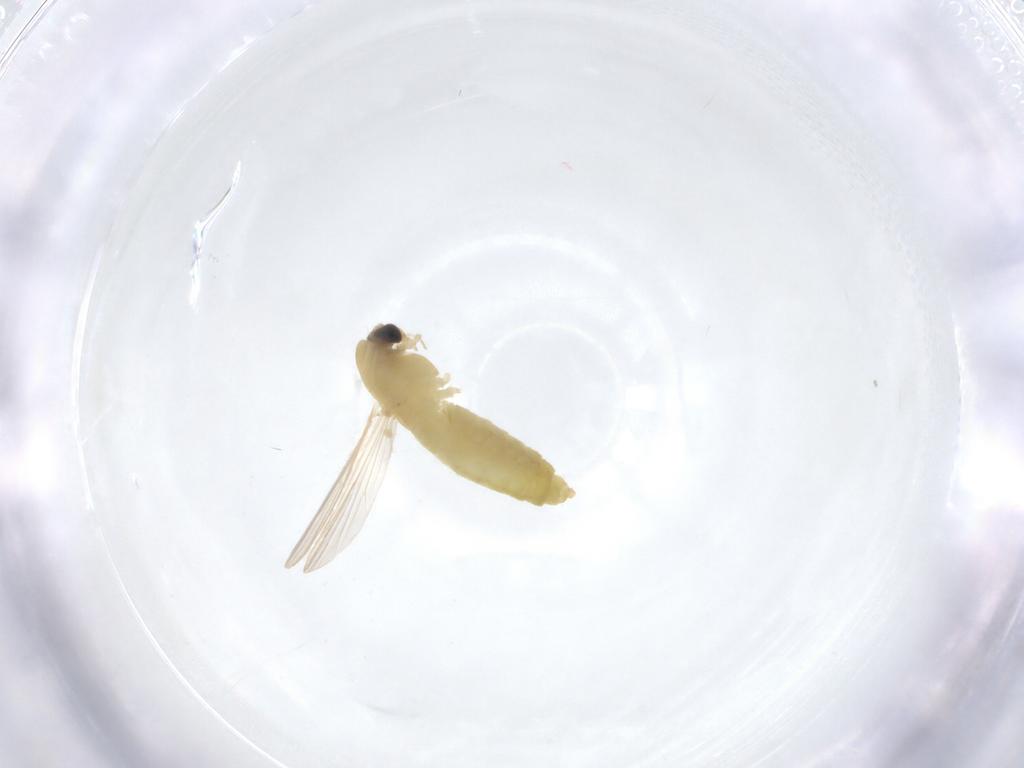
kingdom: Animalia
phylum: Arthropoda
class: Insecta
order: Diptera
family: Chironomidae
